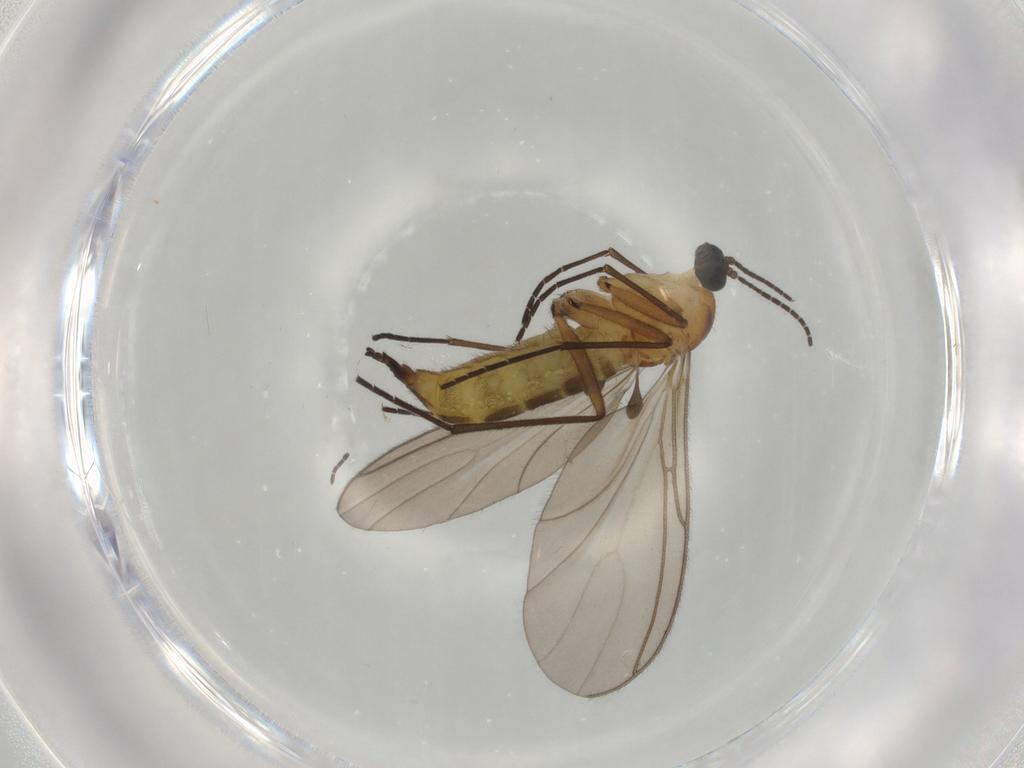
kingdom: Animalia
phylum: Arthropoda
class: Insecta
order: Diptera
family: Sciaridae
